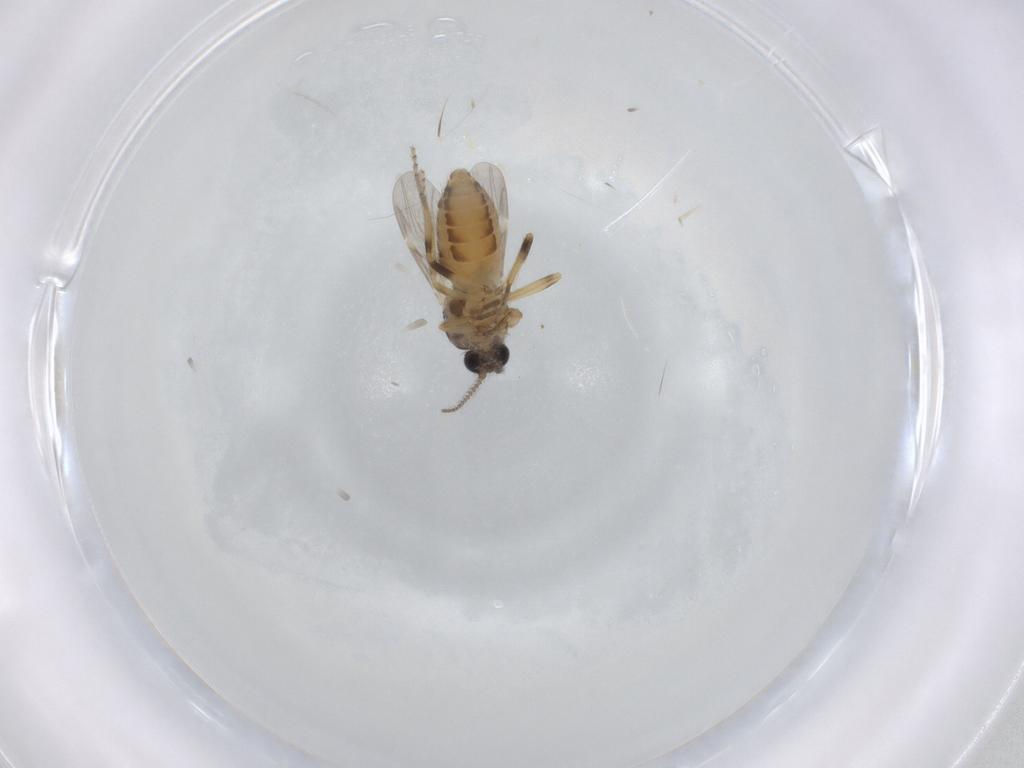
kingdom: Animalia
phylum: Arthropoda
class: Insecta
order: Diptera
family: Ceratopogonidae
